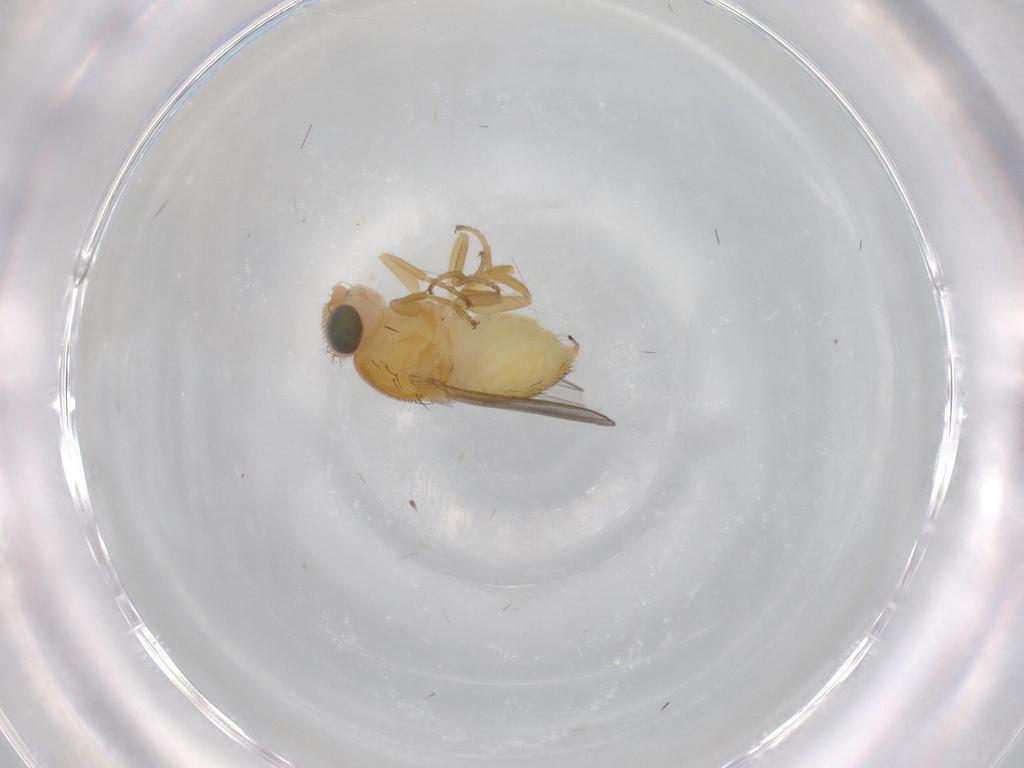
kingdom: Animalia
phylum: Arthropoda
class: Insecta
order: Diptera
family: Chloropidae
